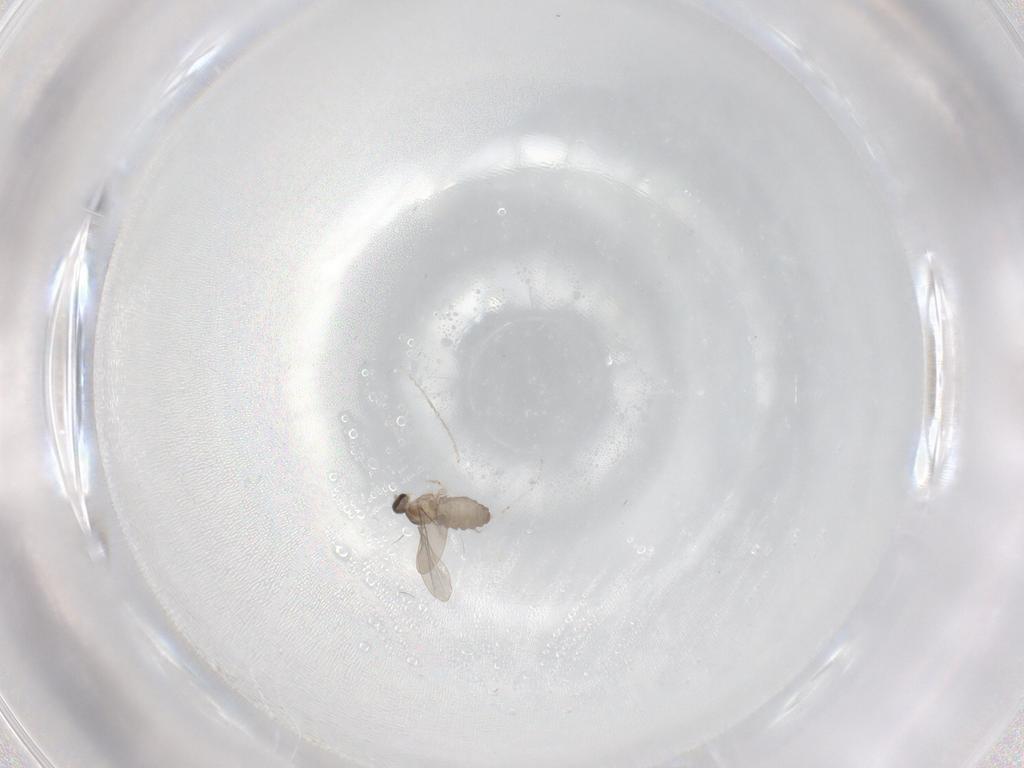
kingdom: Animalia
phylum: Arthropoda
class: Insecta
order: Diptera
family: Cecidomyiidae
